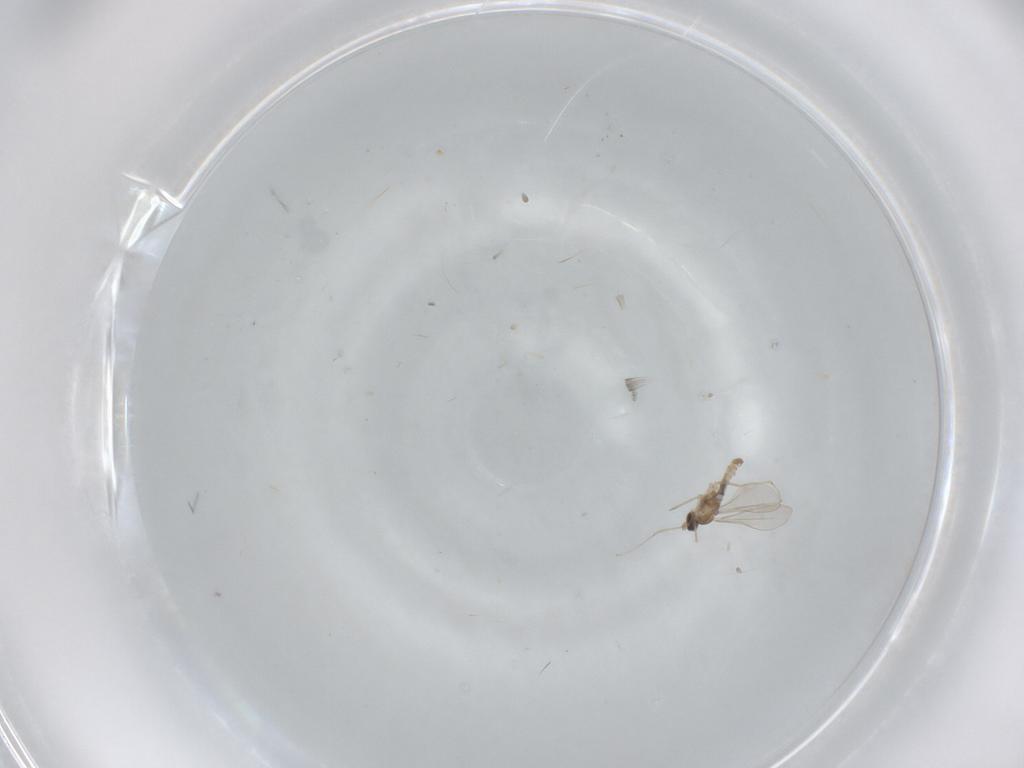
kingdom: Animalia
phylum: Arthropoda
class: Insecta
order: Diptera
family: Cecidomyiidae
